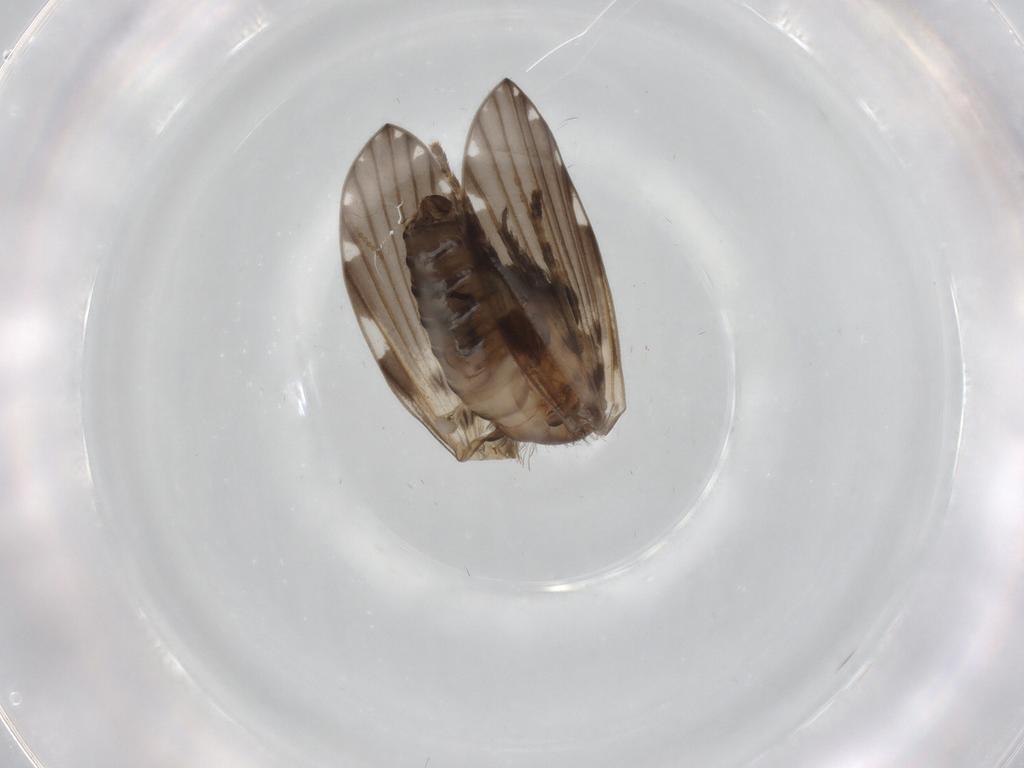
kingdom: Animalia
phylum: Arthropoda
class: Insecta
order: Diptera
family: Psychodidae
